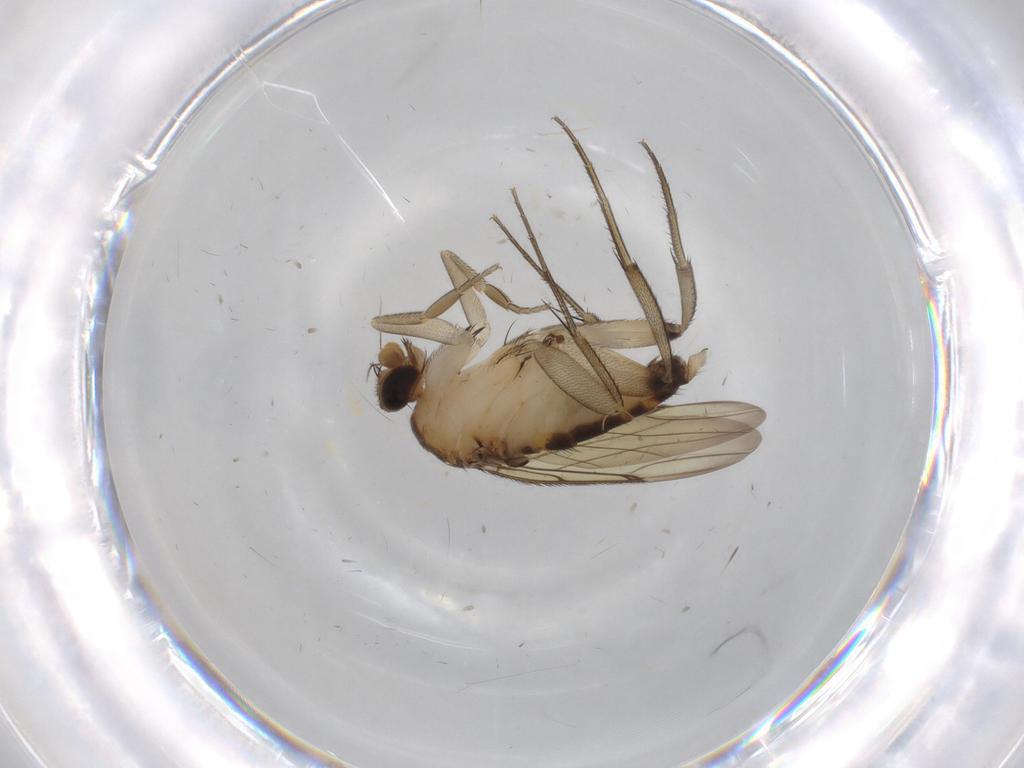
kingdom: Animalia
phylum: Arthropoda
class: Insecta
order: Diptera
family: Phoridae
